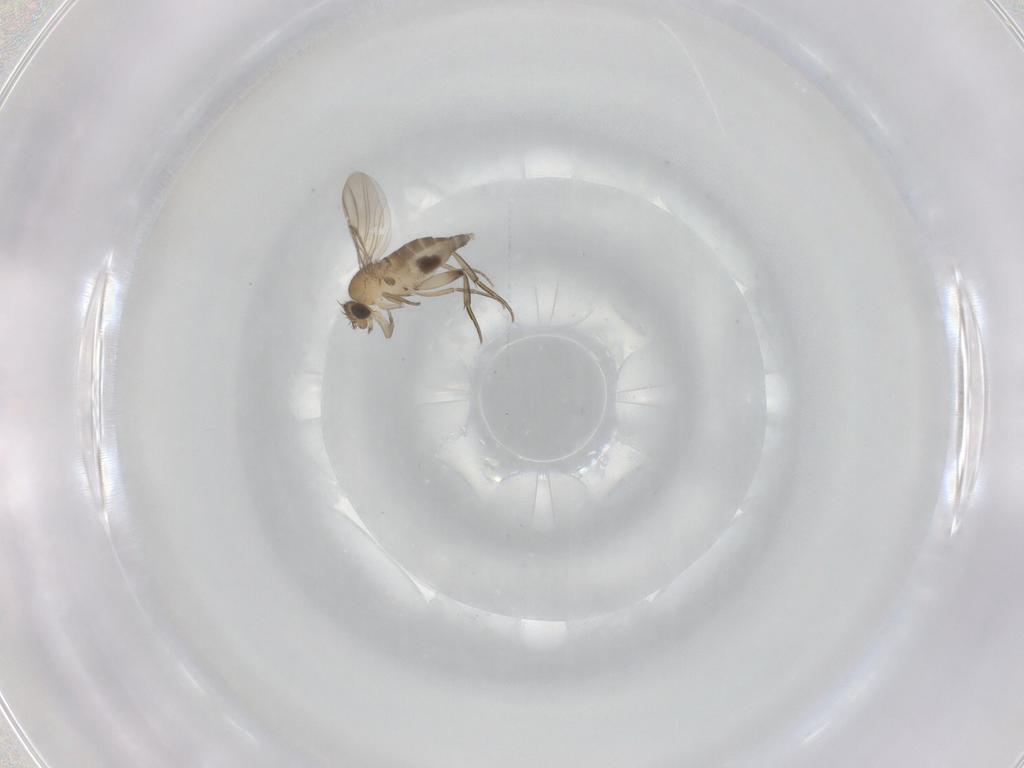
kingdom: Animalia
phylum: Arthropoda
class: Insecta
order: Diptera
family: Phoridae
